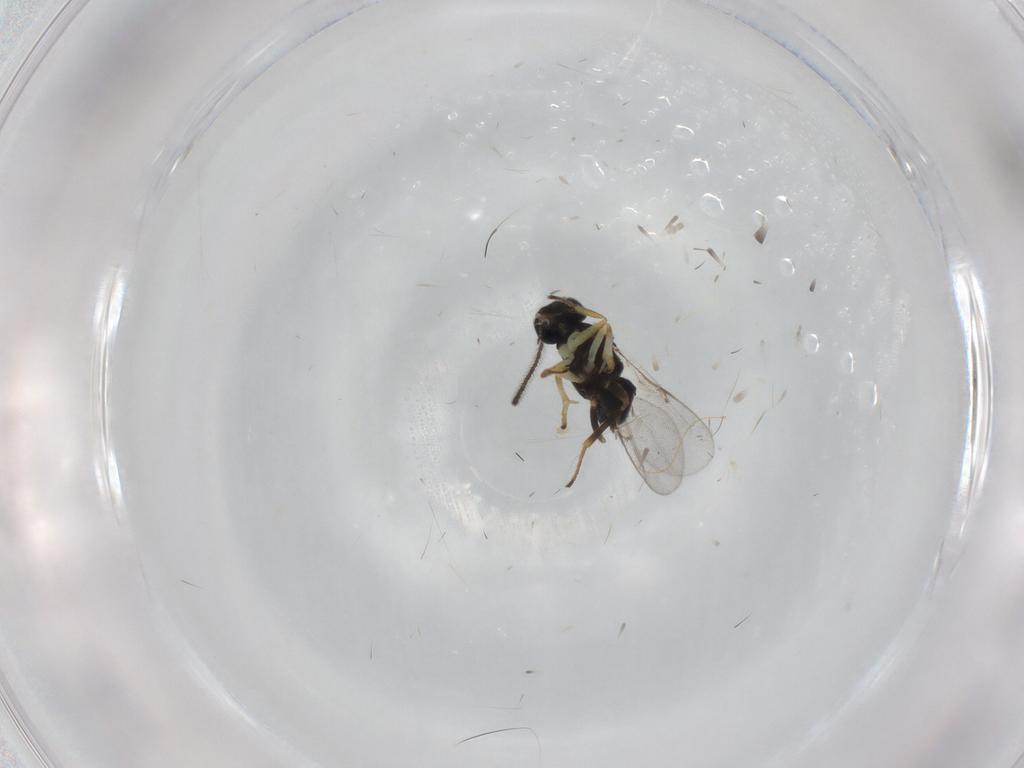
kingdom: Animalia
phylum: Arthropoda
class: Insecta
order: Hymenoptera
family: Encyrtidae
